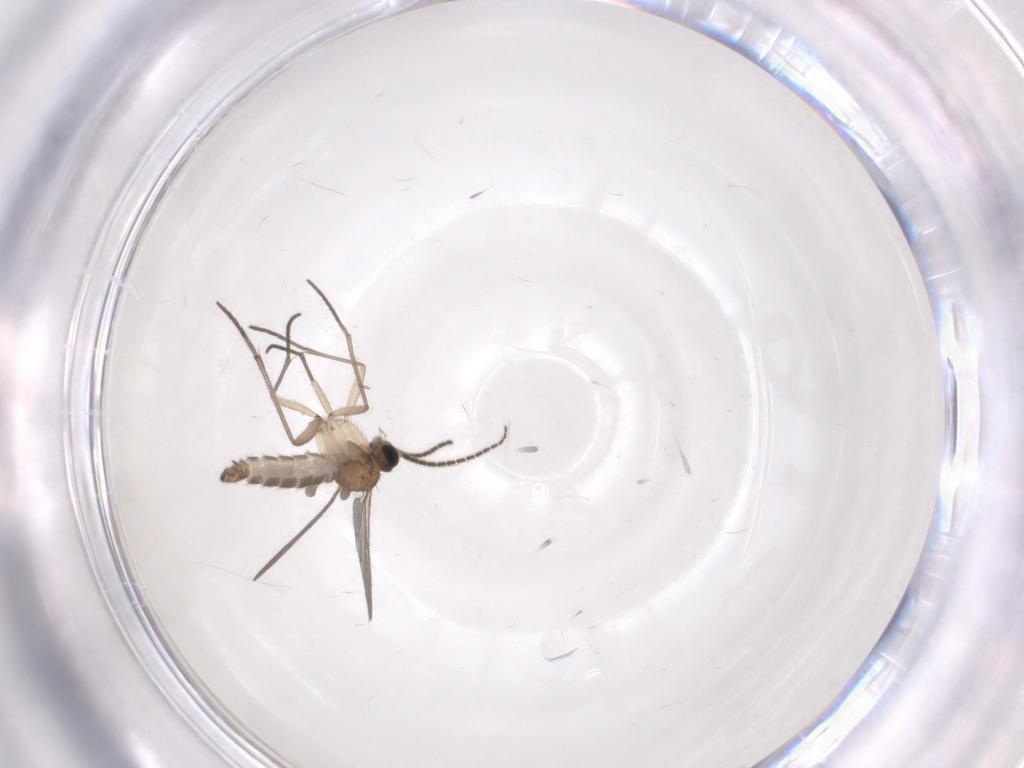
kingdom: Animalia
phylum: Arthropoda
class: Insecta
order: Diptera
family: Sciaridae
